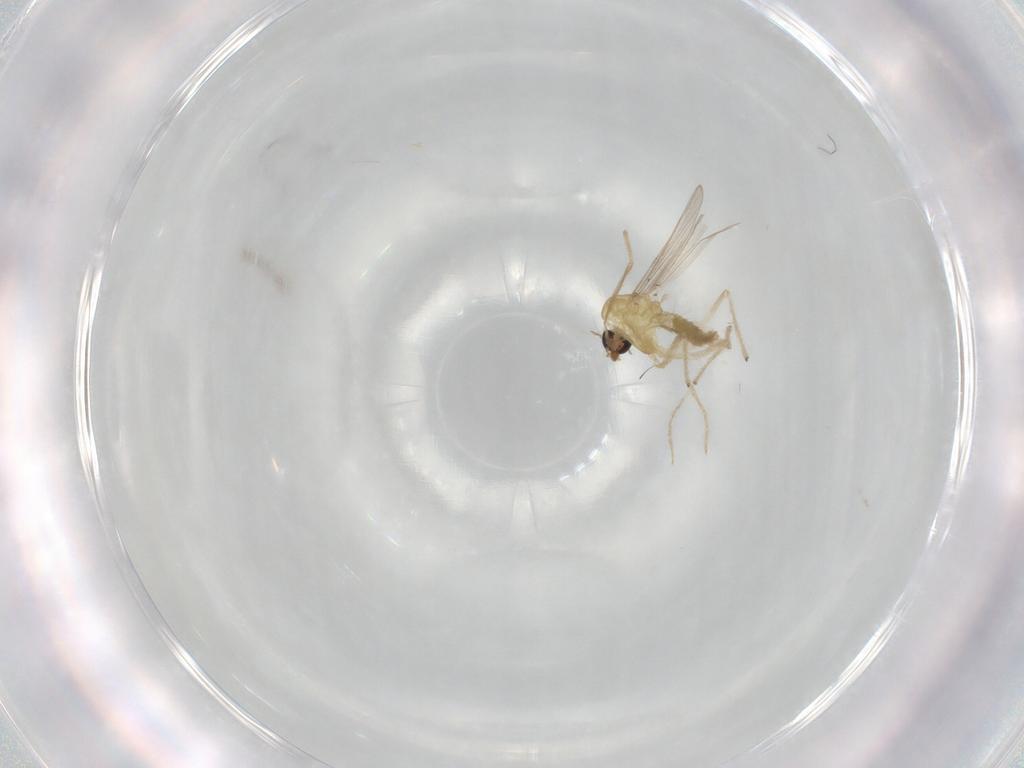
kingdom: Animalia
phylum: Arthropoda
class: Insecta
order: Diptera
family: Chironomidae
